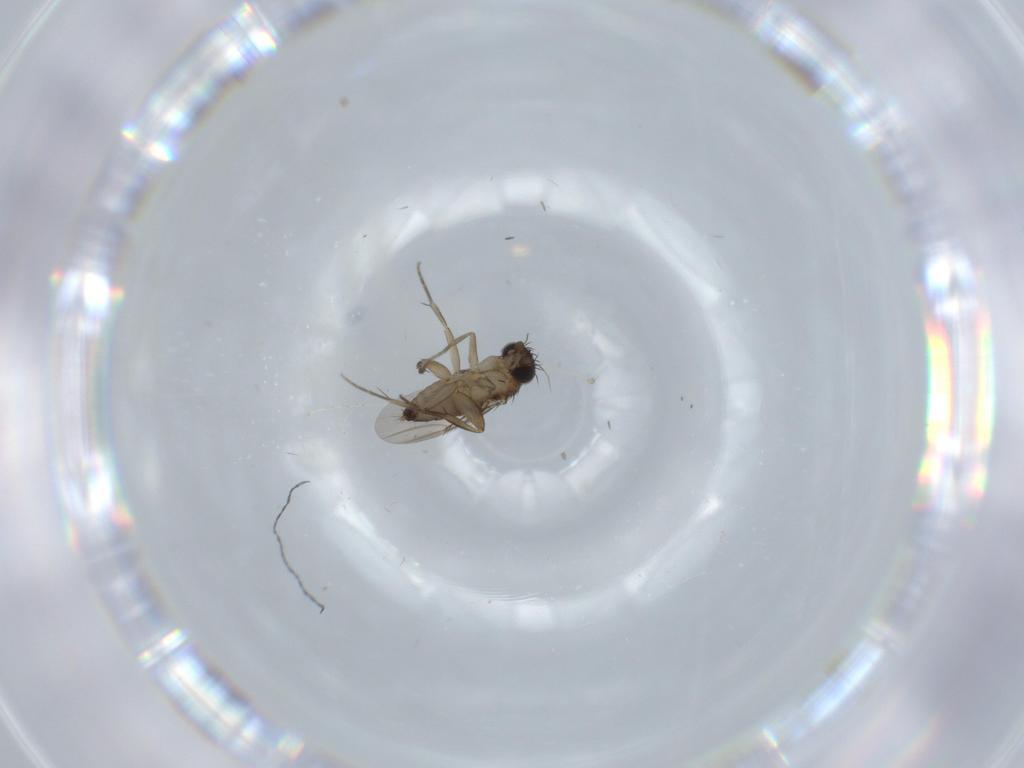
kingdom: Animalia
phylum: Arthropoda
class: Insecta
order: Diptera
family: Phoridae
